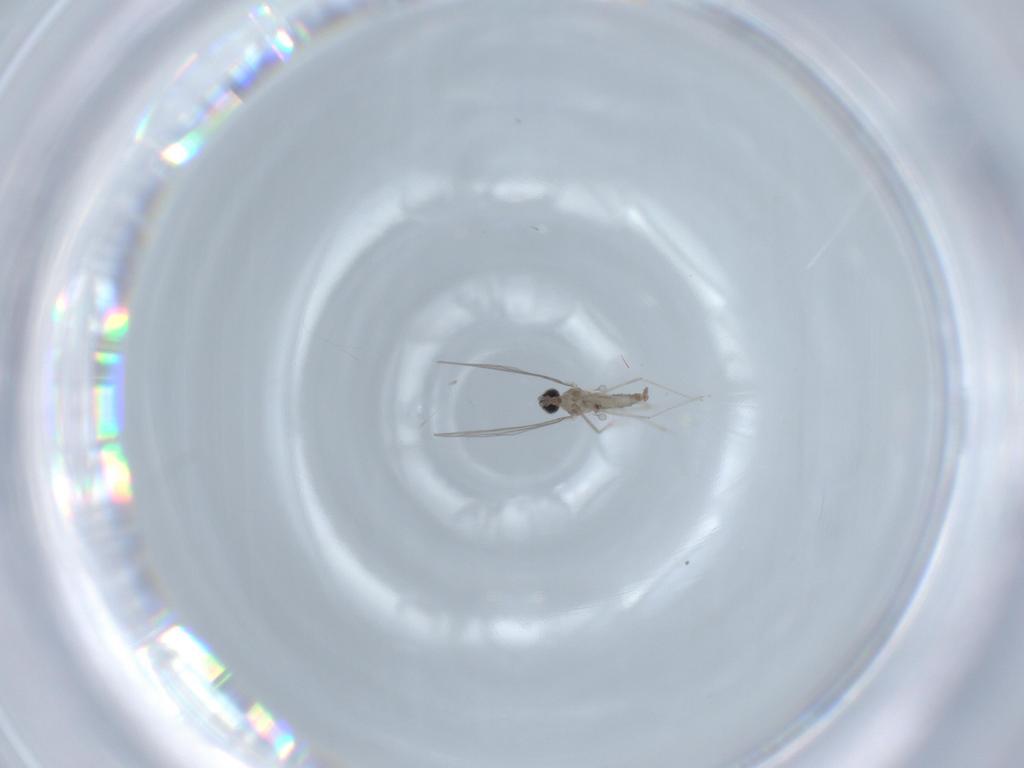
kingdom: Animalia
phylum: Arthropoda
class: Insecta
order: Diptera
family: Cecidomyiidae
